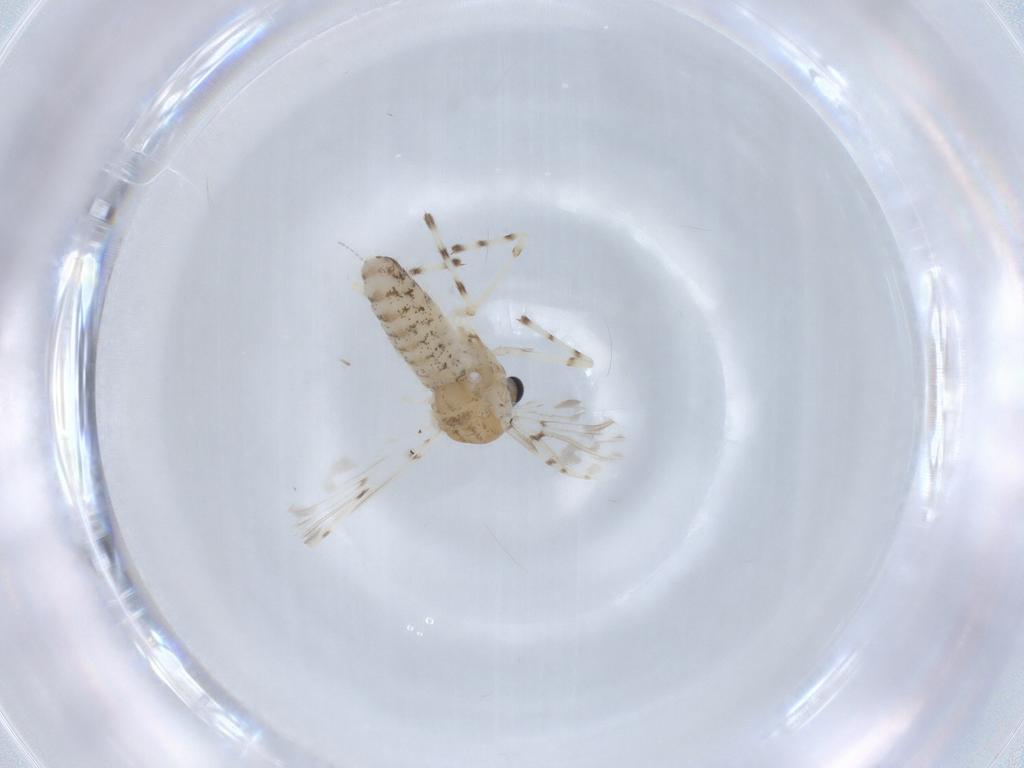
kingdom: Animalia
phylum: Arthropoda
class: Insecta
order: Diptera
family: Chironomidae
